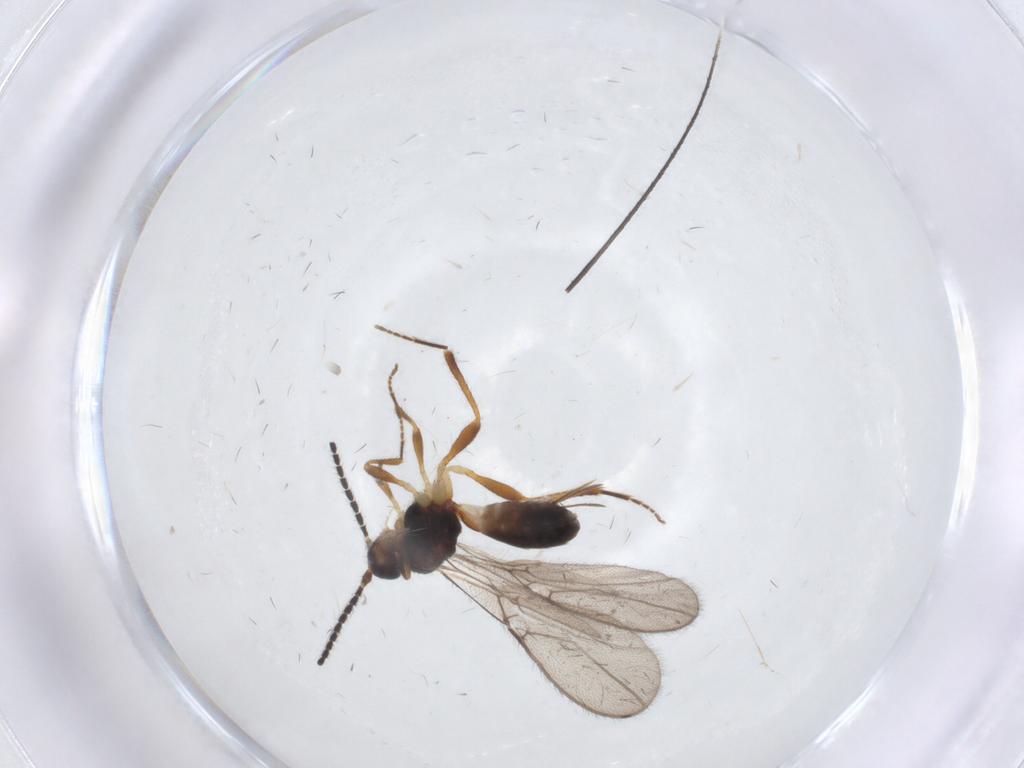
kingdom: Animalia
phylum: Arthropoda
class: Insecta
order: Hymenoptera
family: Braconidae
